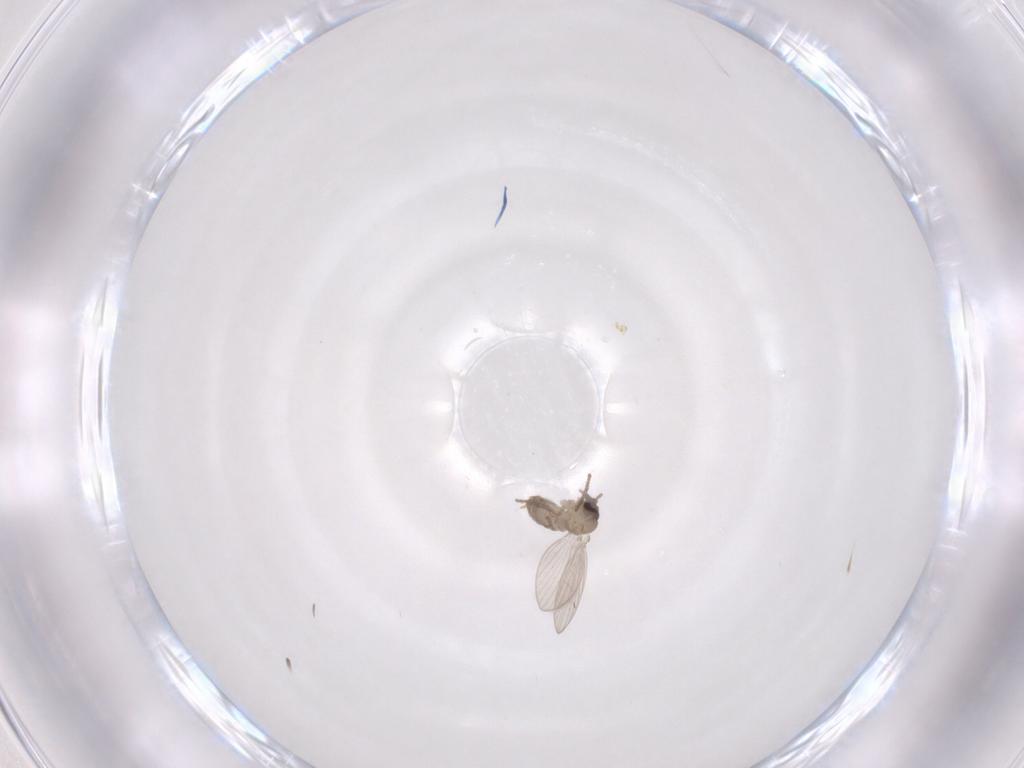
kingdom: Animalia
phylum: Arthropoda
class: Insecta
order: Diptera
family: Psychodidae
